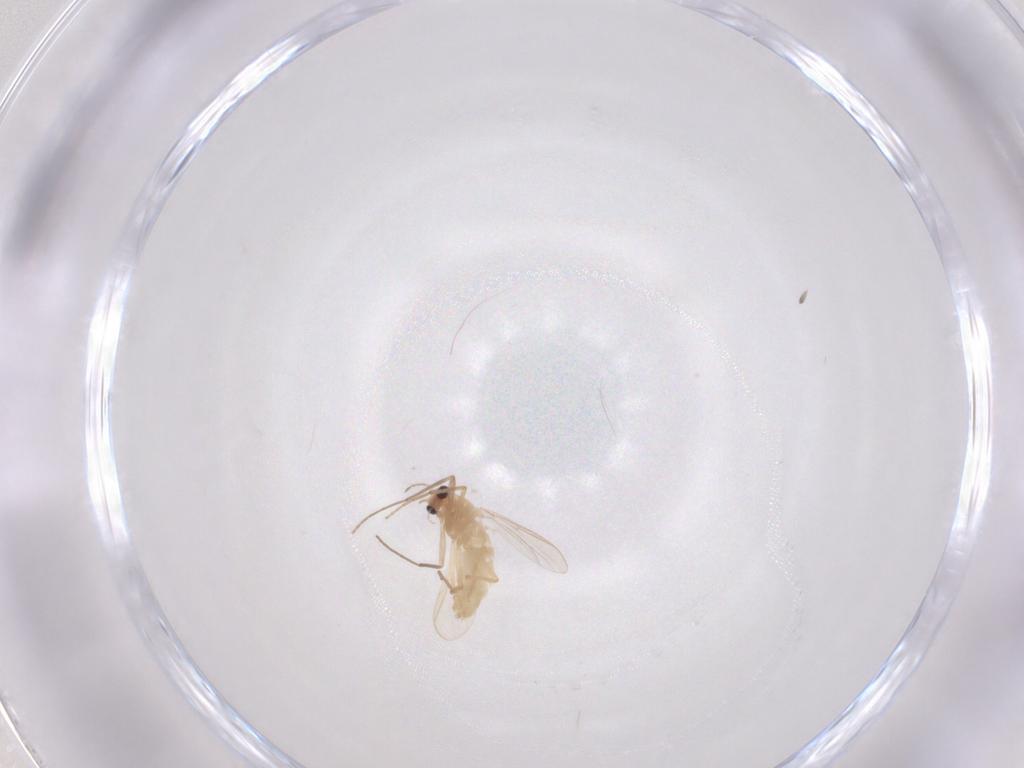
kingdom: Animalia
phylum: Arthropoda
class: Insecta
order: Diptera
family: Chironomidae
